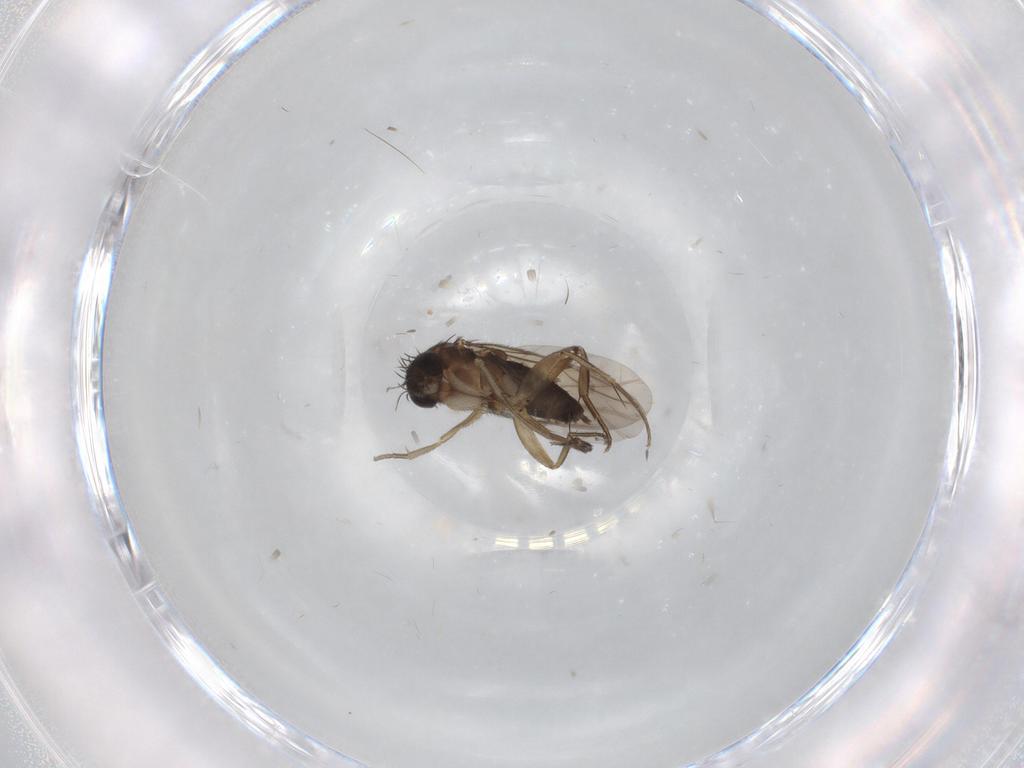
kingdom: Animalia
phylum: Arthropoda
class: Insecta
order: Diptera
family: Phoridae
